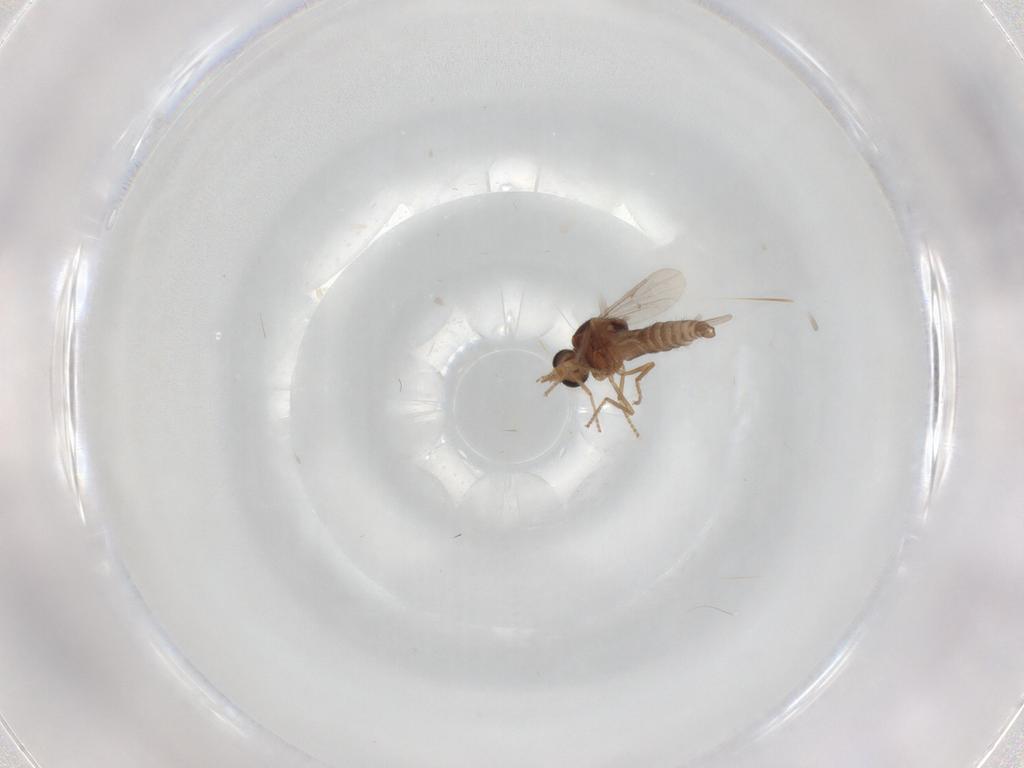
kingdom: Animalia
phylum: Arthropoda
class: Insecta
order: Diptera
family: Ceratopogonidae
